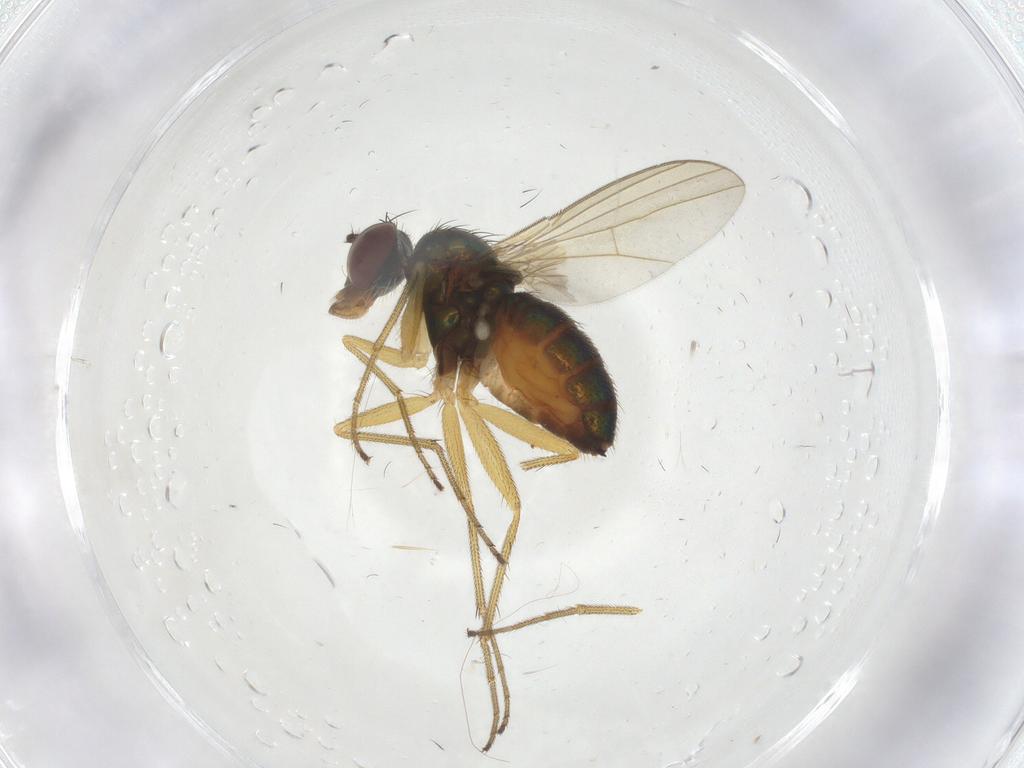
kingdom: Animalia
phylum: Arthropoda
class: Insecta
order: Diptera
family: Dolichopodidae
